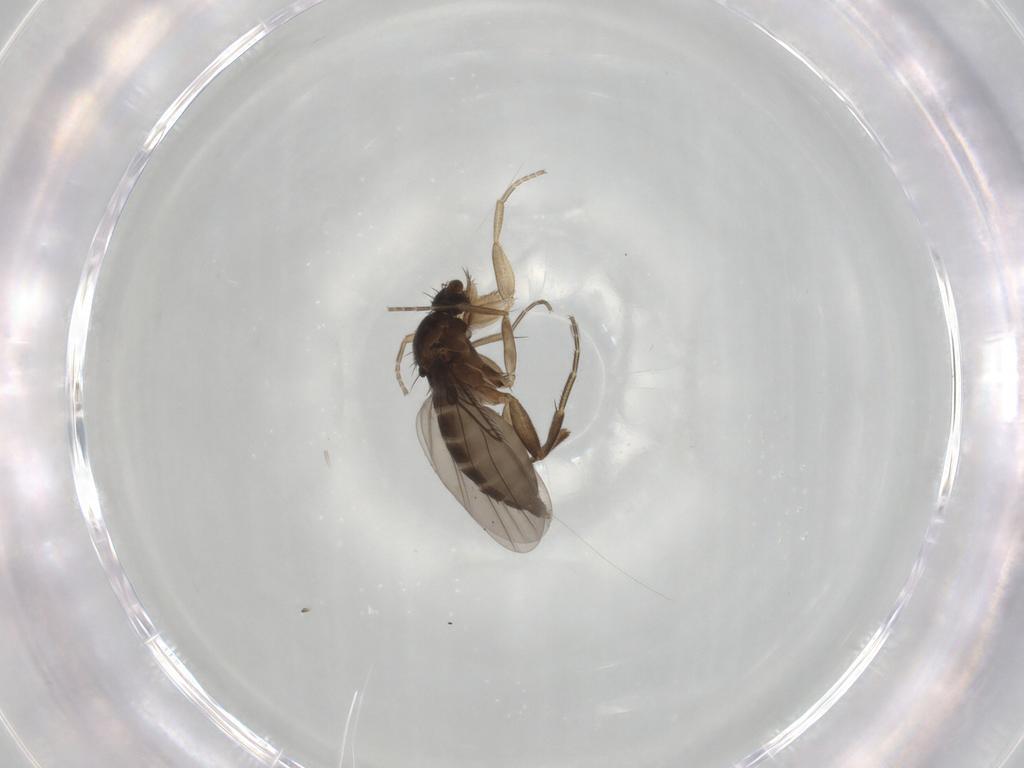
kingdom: Animalia
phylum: Arthropoda
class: Insecta
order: Diptera
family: Phoridae
